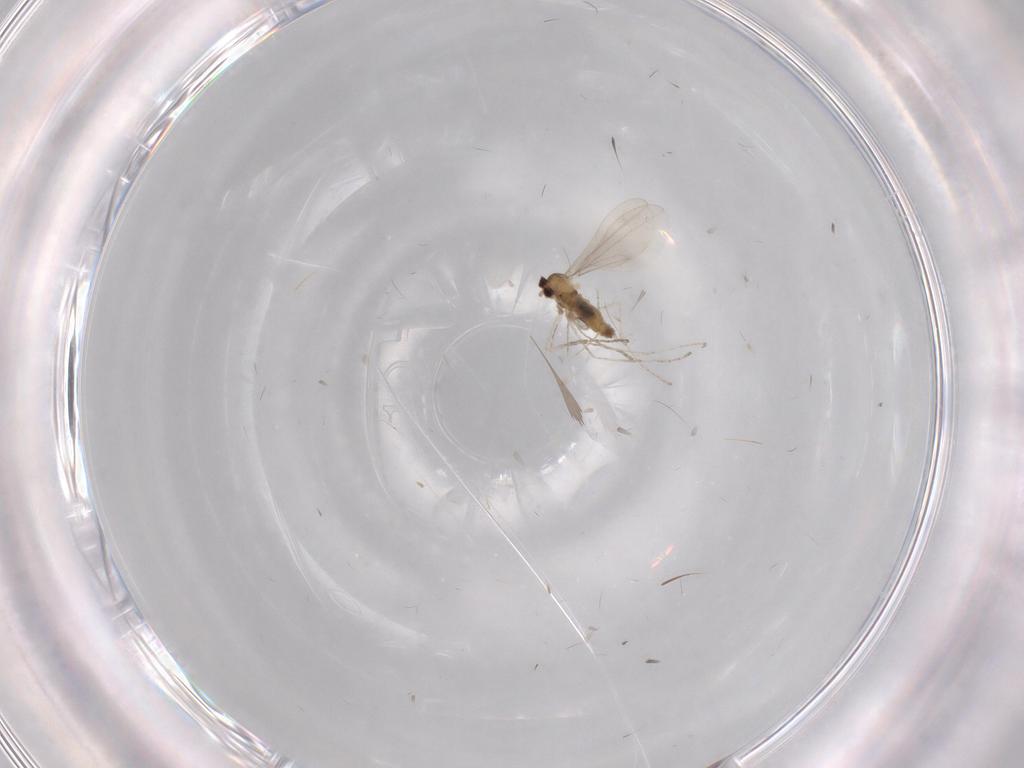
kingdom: Animalia
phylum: Arthropoda
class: Insecta
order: Diptera
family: Cecidomyiidae
